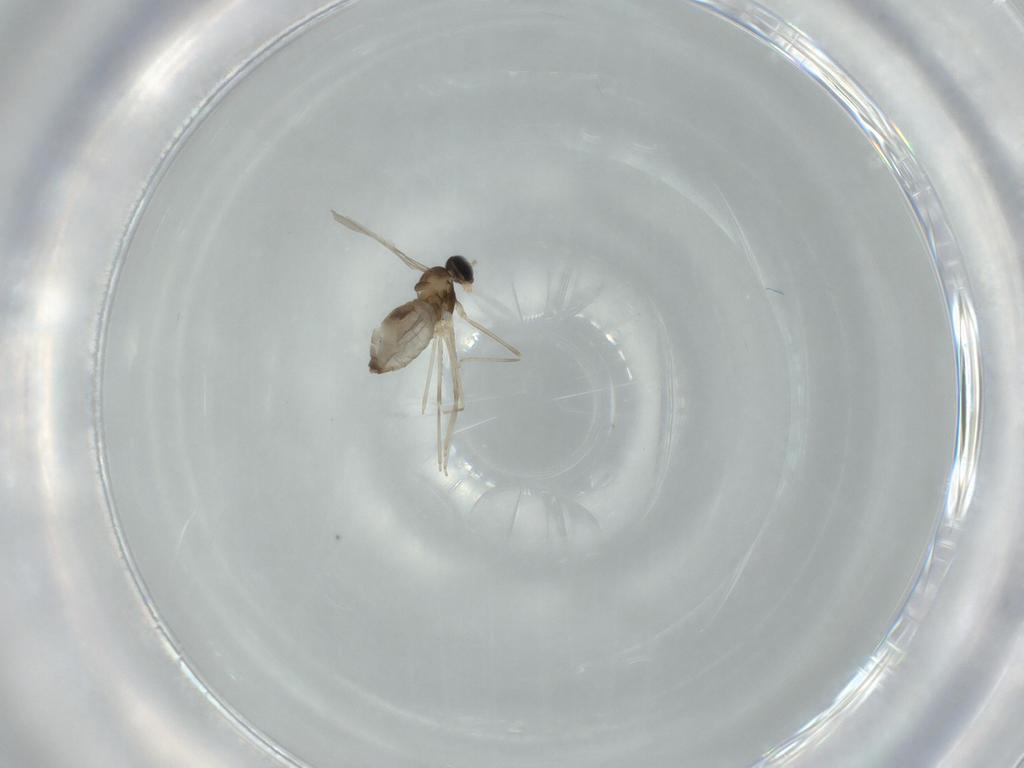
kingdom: Animalia
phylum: Arthropoda
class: Insecta
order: Diptera
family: Cecidomyiidae
